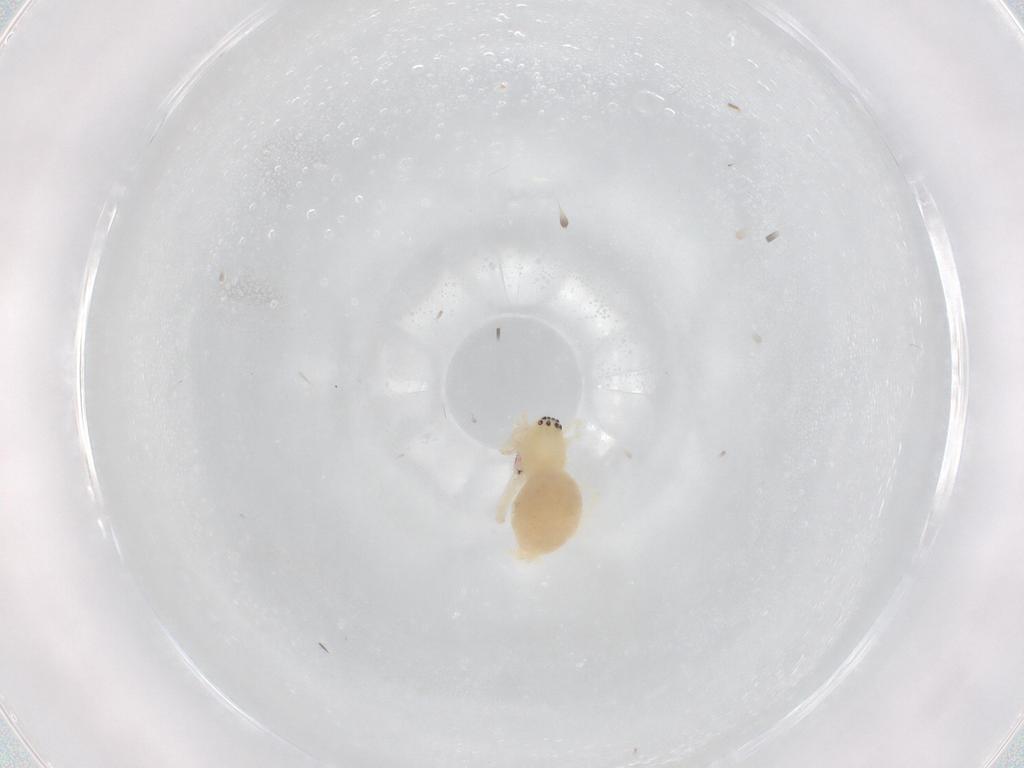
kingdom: Animalia
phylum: Arthropoda
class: Arachnida
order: Araneae
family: Anyphaenidae
